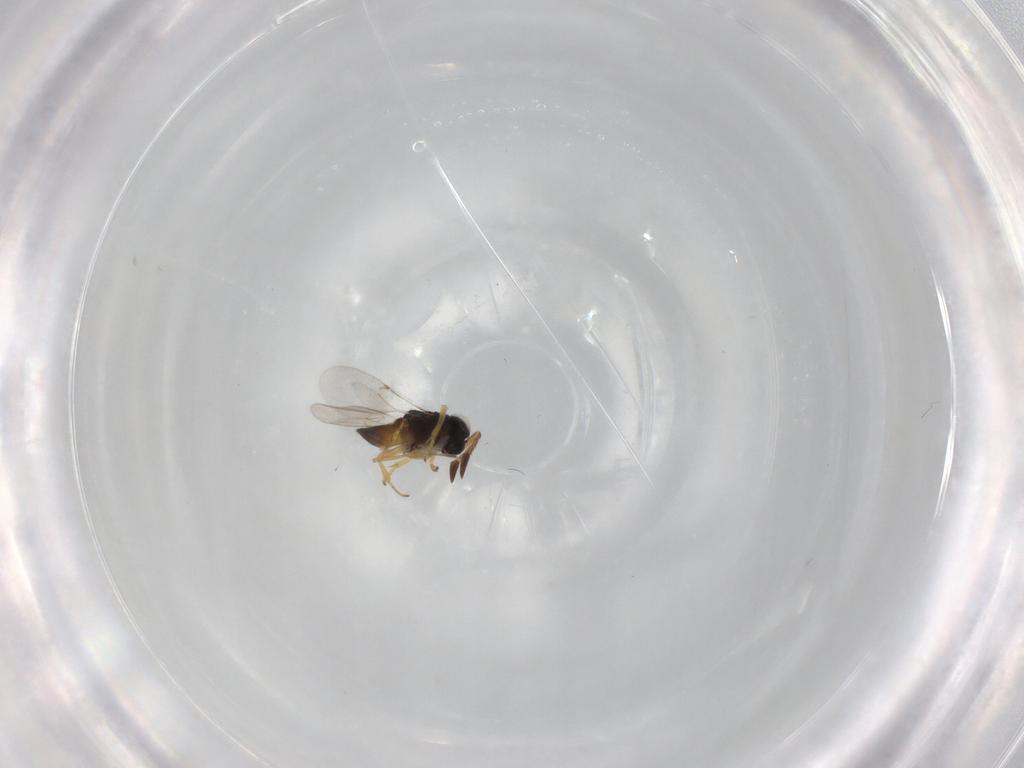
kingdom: Animalia
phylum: Arthropoda
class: Insecta
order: Hymenoptera
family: Encyrtidae
